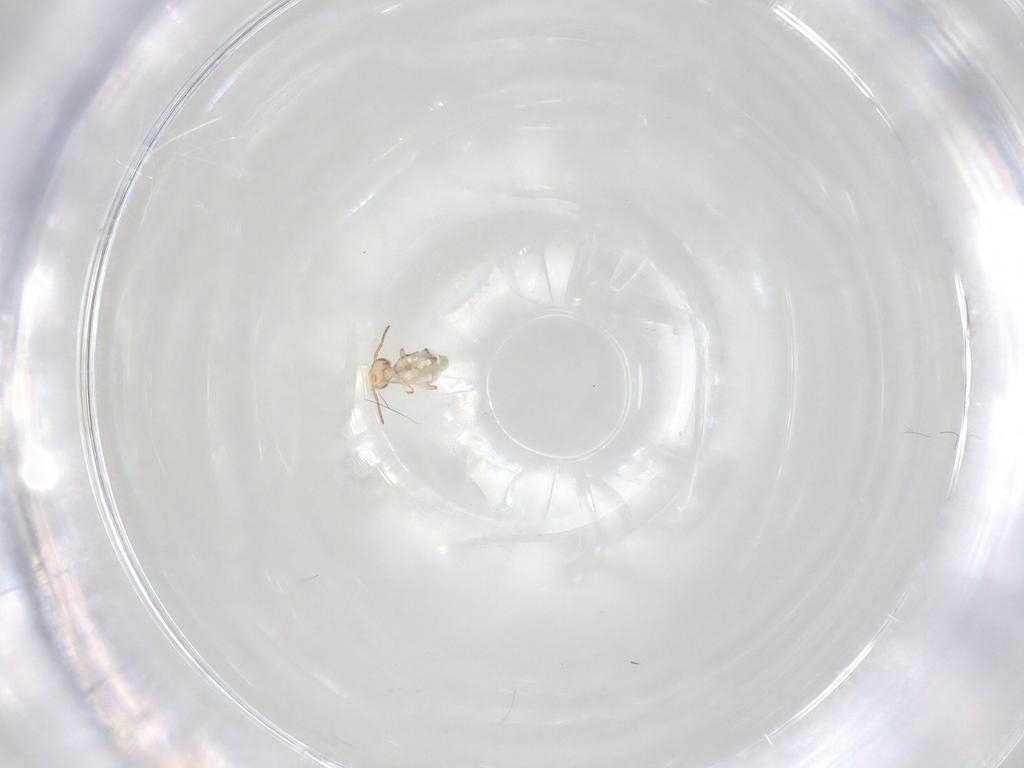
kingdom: Animalia
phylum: Arthropoda
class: Collembola
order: Symphypleona
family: Bourletiellidae
